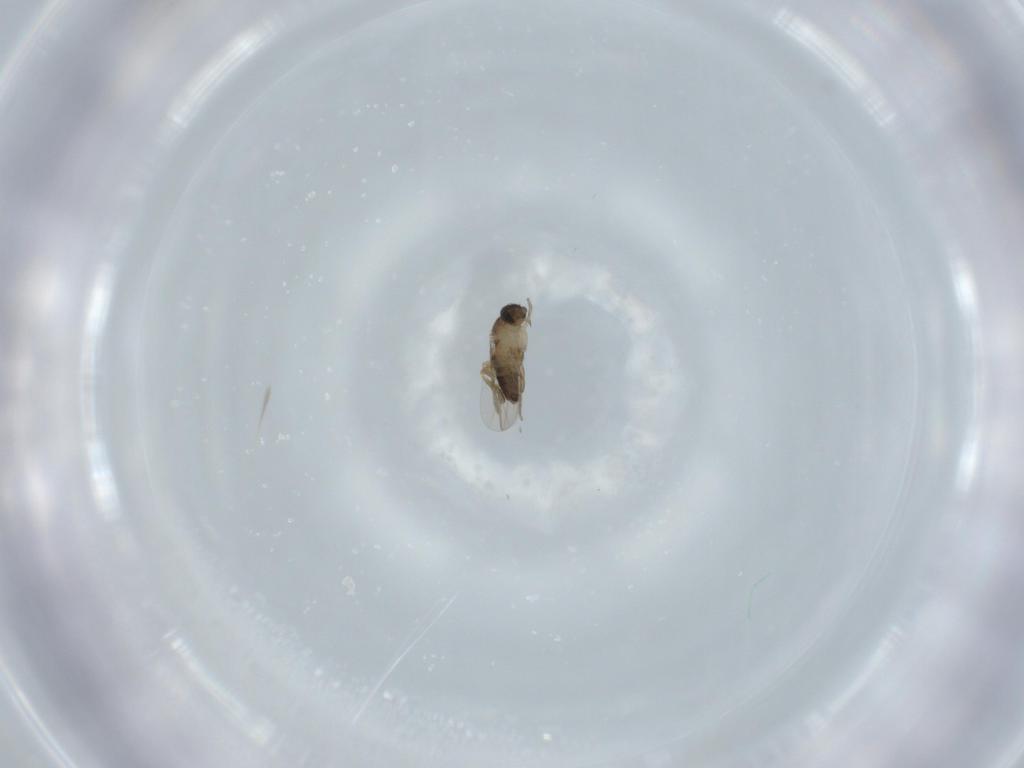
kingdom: Animalia
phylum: Arthropoda
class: Insecta
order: Diptera
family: Phoridae
